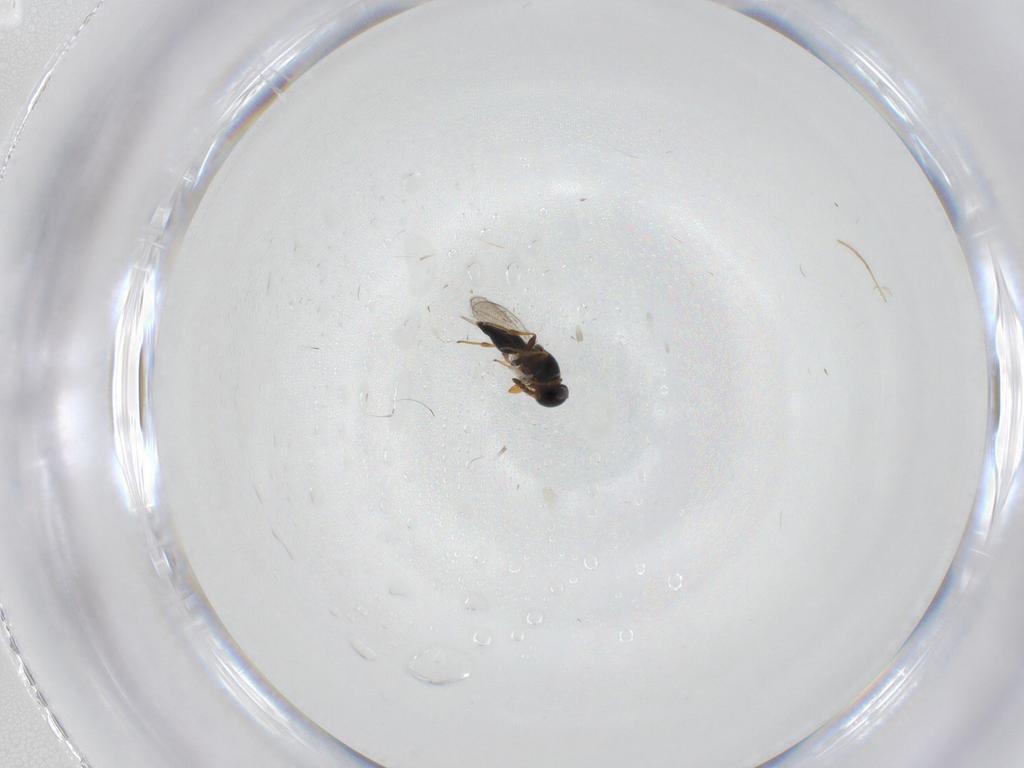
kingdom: Animalia
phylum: Arthropoda
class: Insecta
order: Hymenoptera
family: Platygastridae
